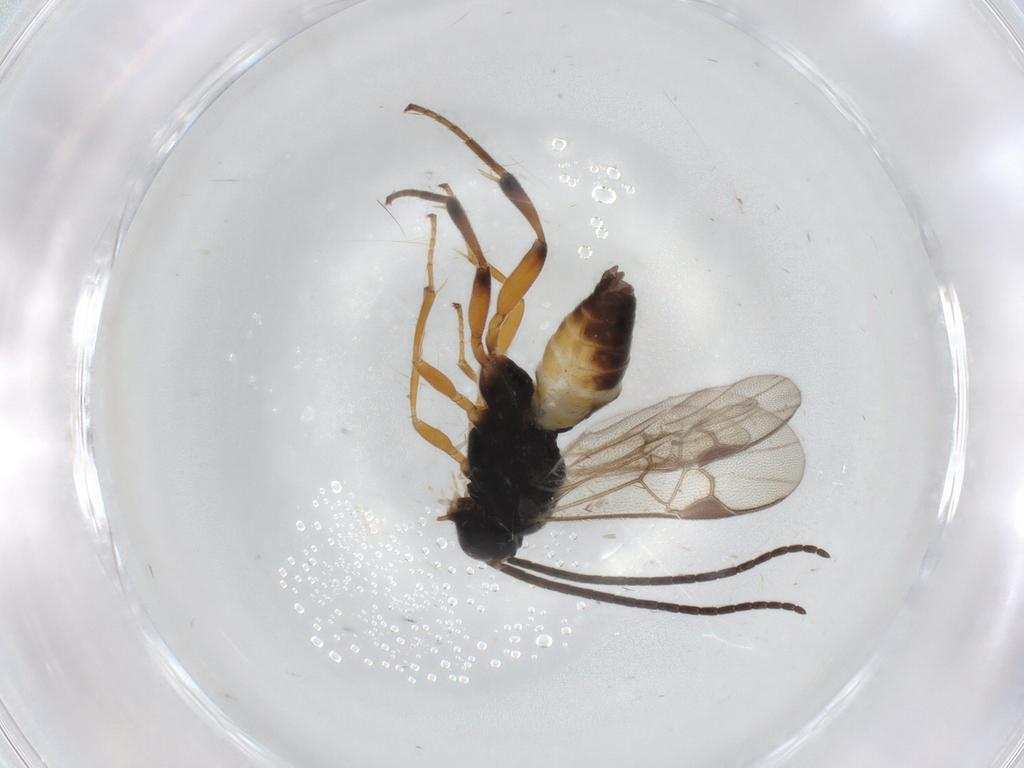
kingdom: Animalia
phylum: Arthropoda
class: Insecta
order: Hymenoptera
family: Braconidae
